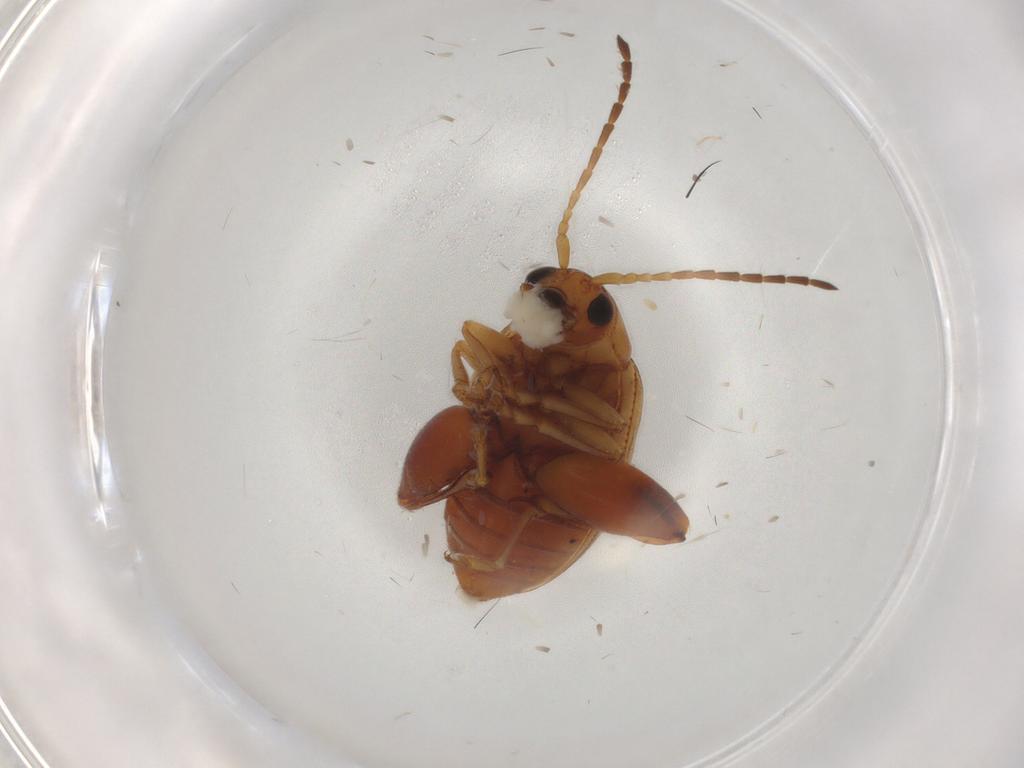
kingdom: Animalia
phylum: Arthropoda
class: Insecta
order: Coleoptera
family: Chrysomelidae
